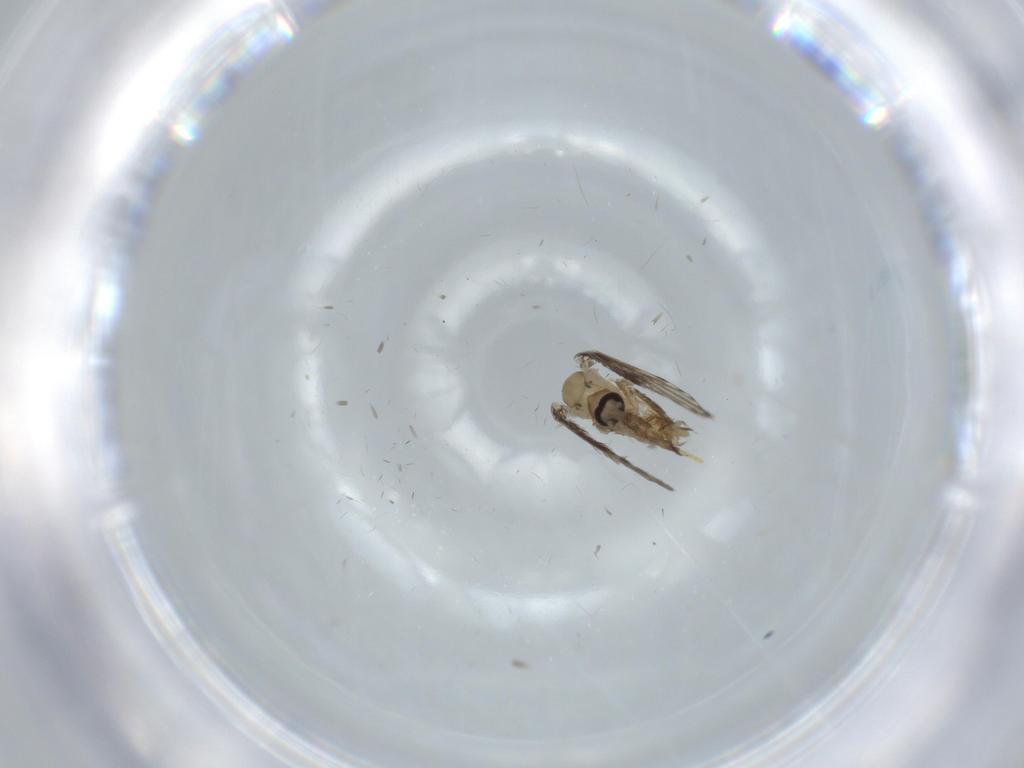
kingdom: Animalia
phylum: Arthropoda
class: Insecta
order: Diptera
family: Psychodidae
